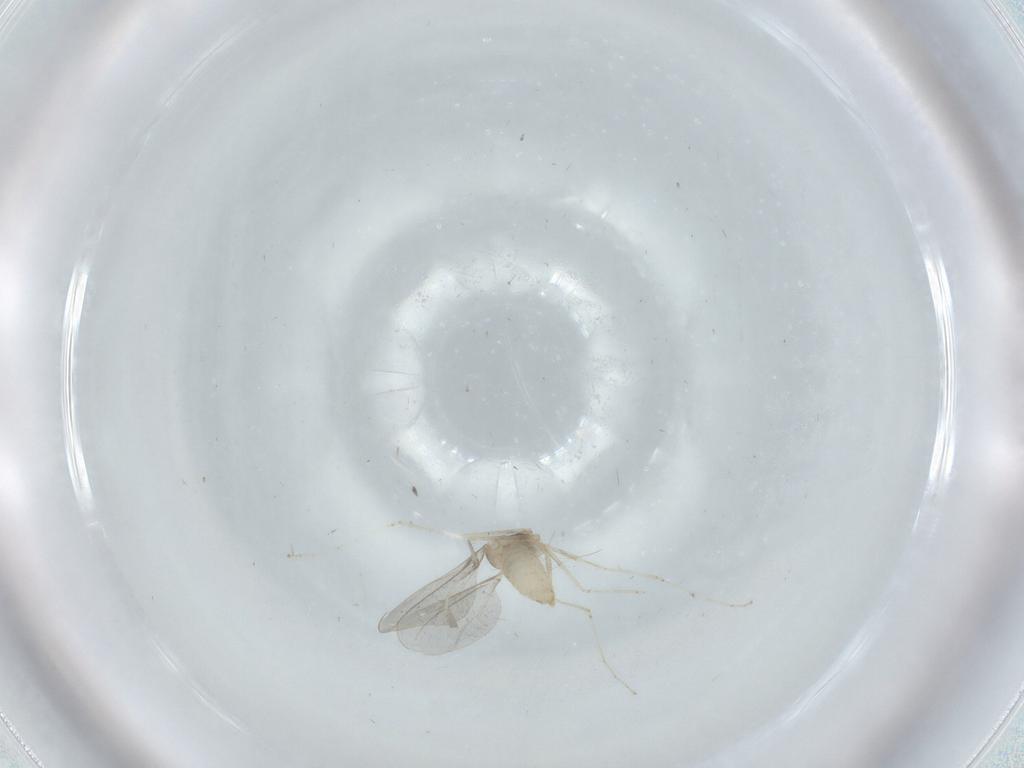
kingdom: Animalia
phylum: Arthropoda
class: Insecta
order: Diptera
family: Cecidomyiidae
